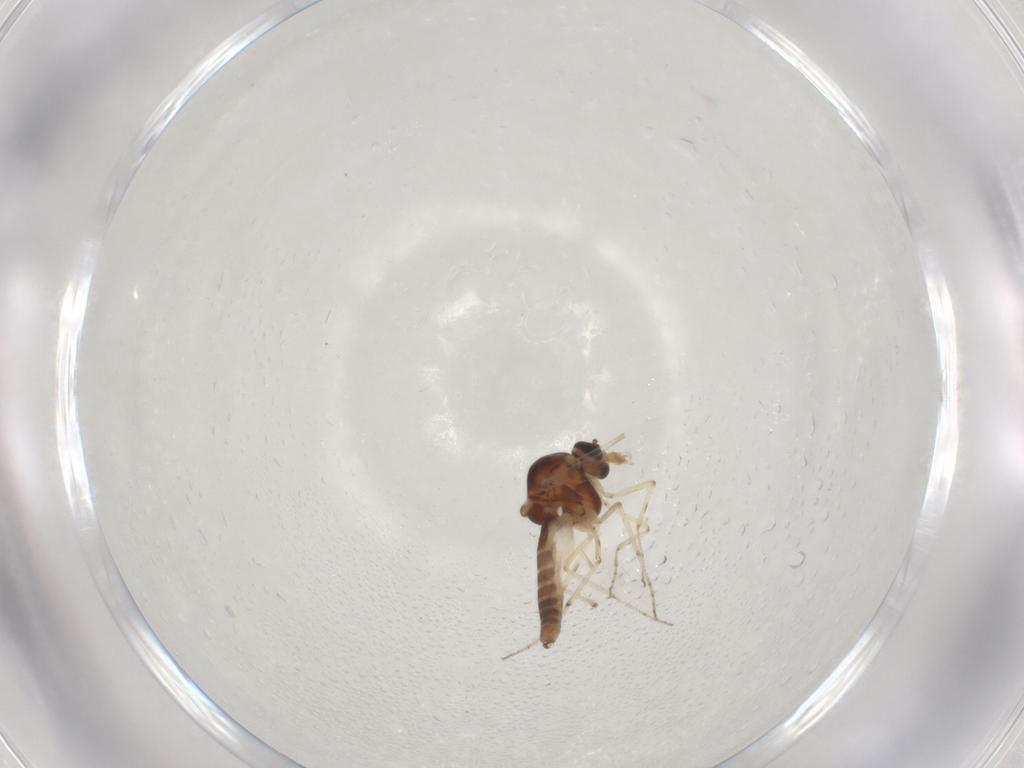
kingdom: Animalia
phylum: Arthropoda
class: Insecta
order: Diptera
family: Ceratopogonidae
